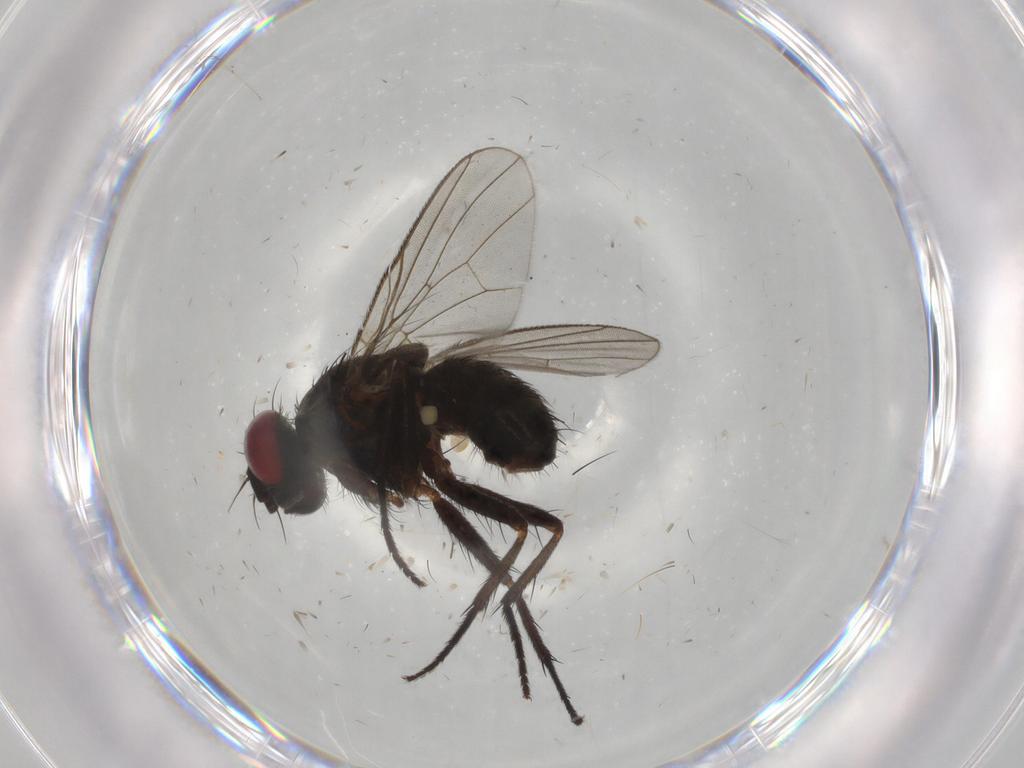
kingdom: Animalia
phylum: Arthropoda
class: Insecta
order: Diptera
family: Muscidae
